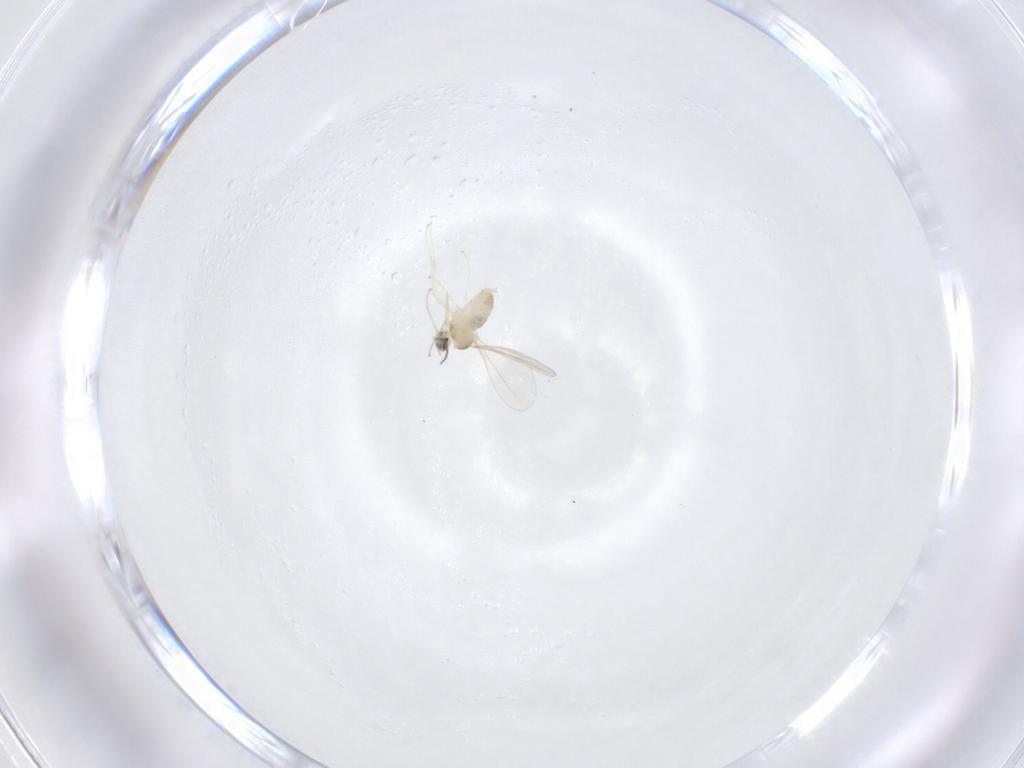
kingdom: Animalia
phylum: Arthropoda
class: Insecta
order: Diptera
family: Cecidomyiidae
